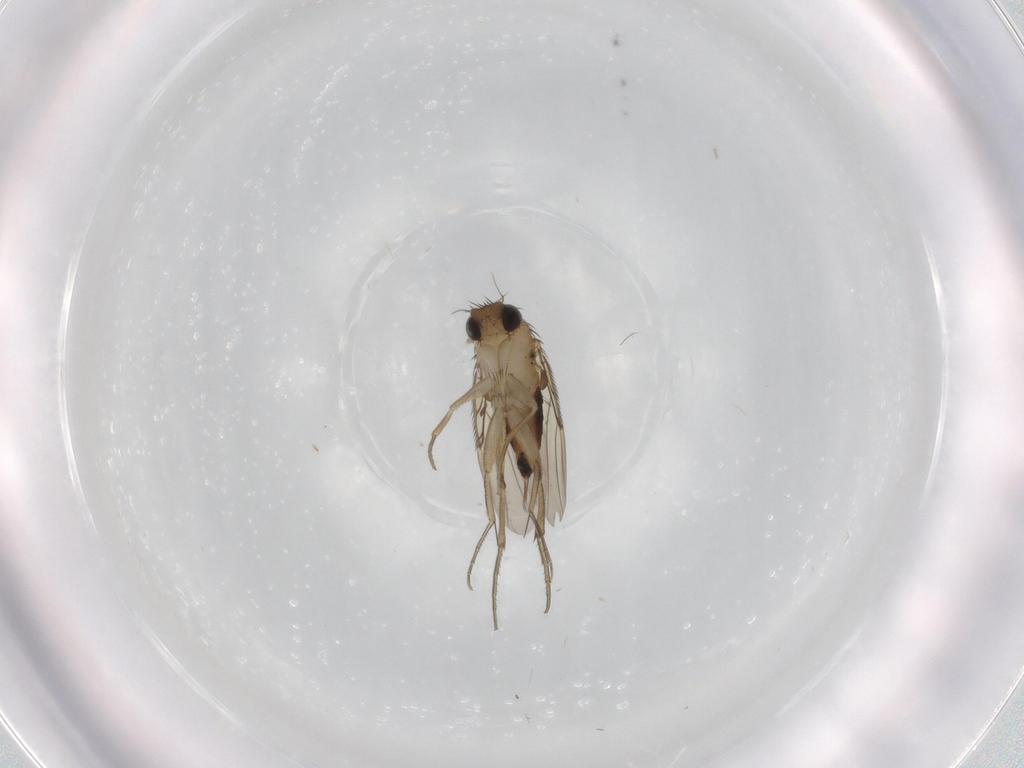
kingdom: Animalia
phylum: Arthropoda
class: Insecta
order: Diptera
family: Phoridae
